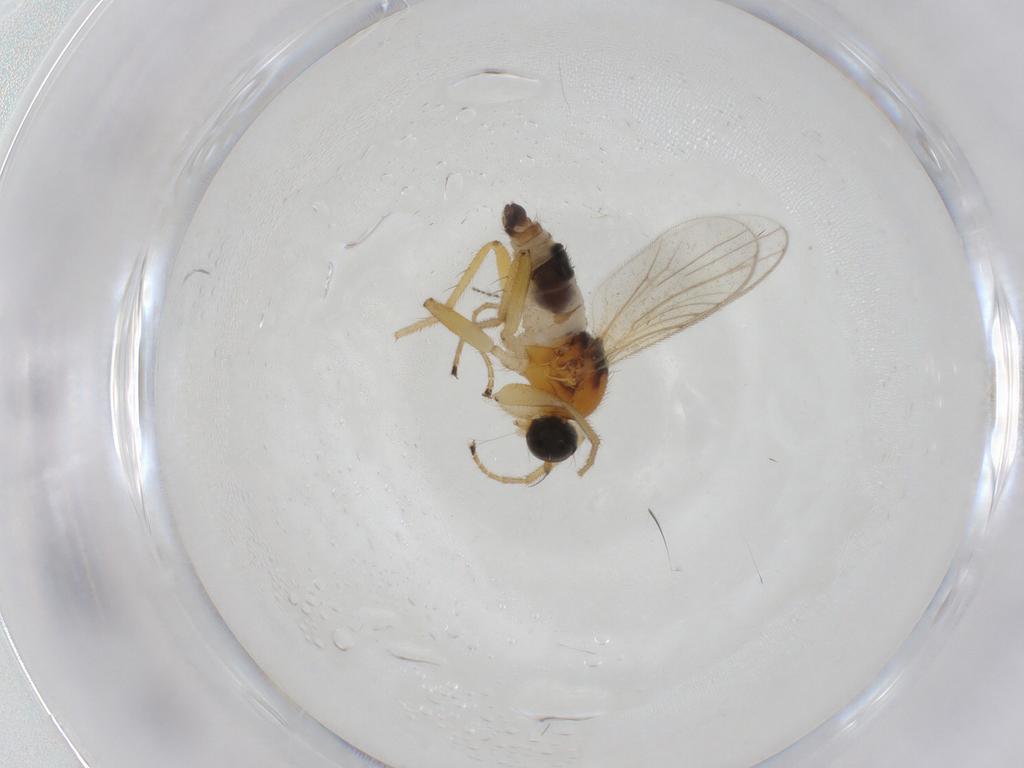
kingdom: Animalia
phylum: Arthropoda
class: Insecta
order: Diptera
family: Hybotidae
